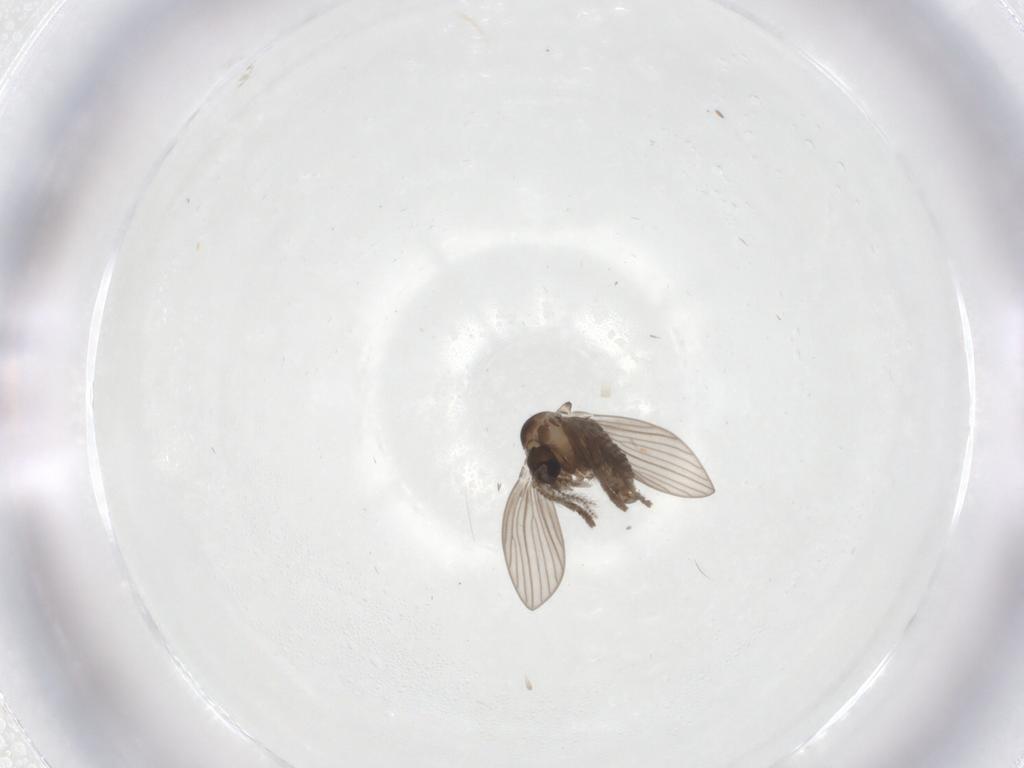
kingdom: Animalia
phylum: Arthropoda
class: Insecta
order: Diptera
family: Psychodidae
